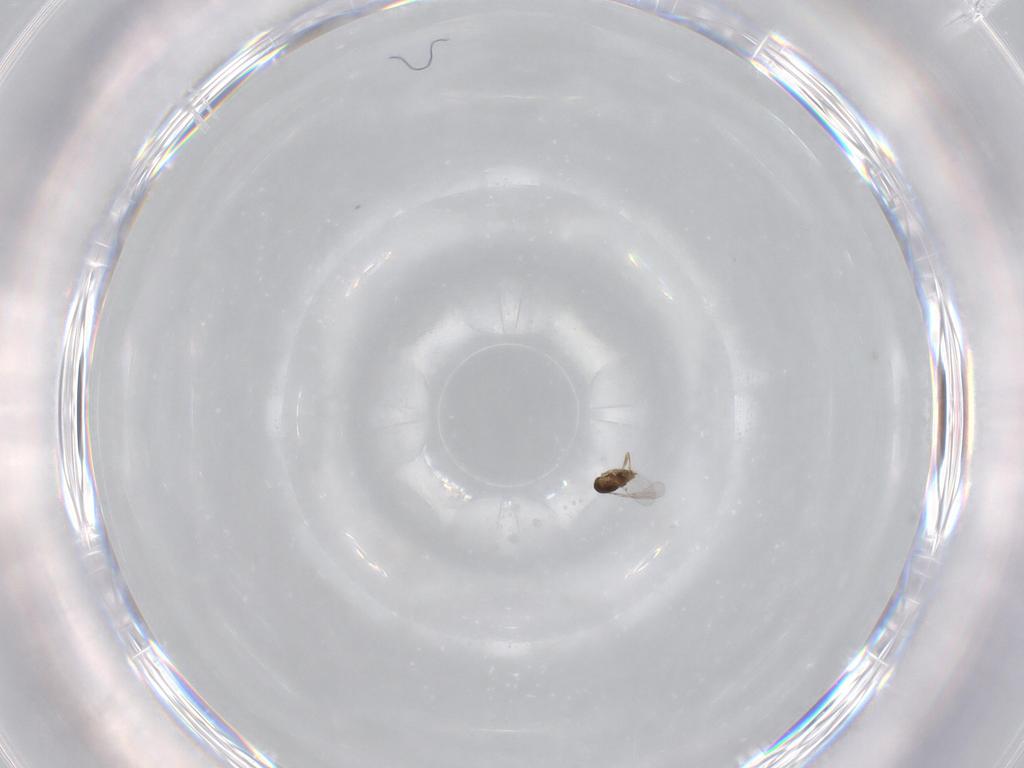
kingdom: Animalia
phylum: Arthropoda
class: Insecta
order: Hymenoptera
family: Encyrtidae
